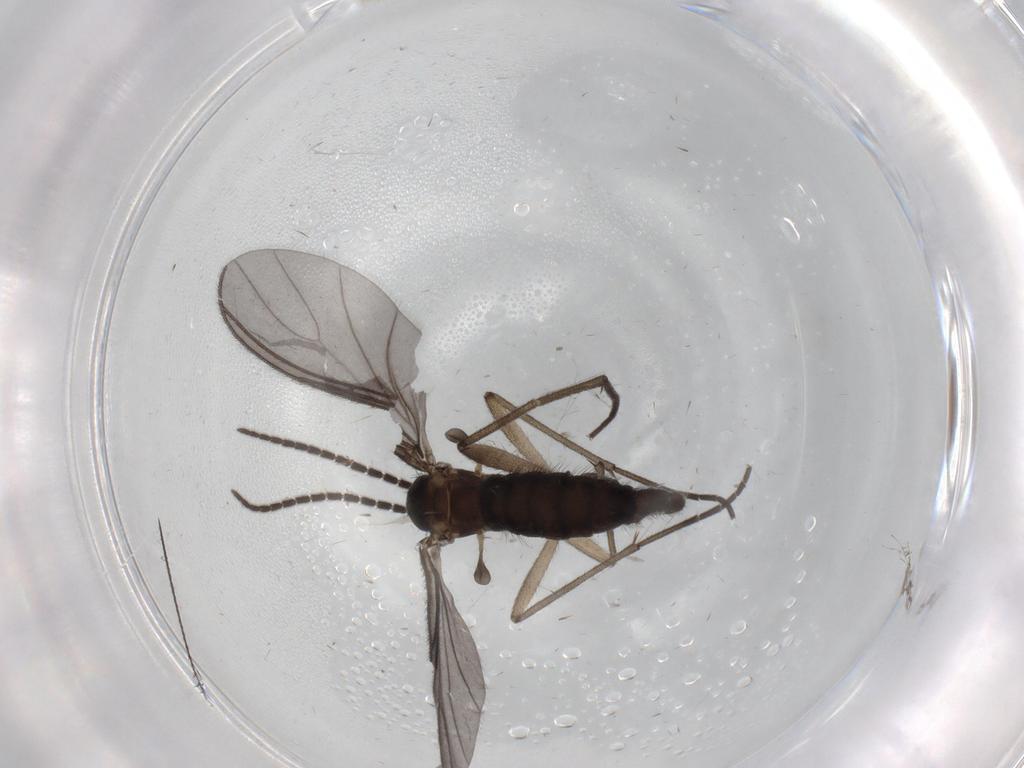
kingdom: Animalia
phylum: Arthropoda
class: Insecta
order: Diptera
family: Sciaridae
